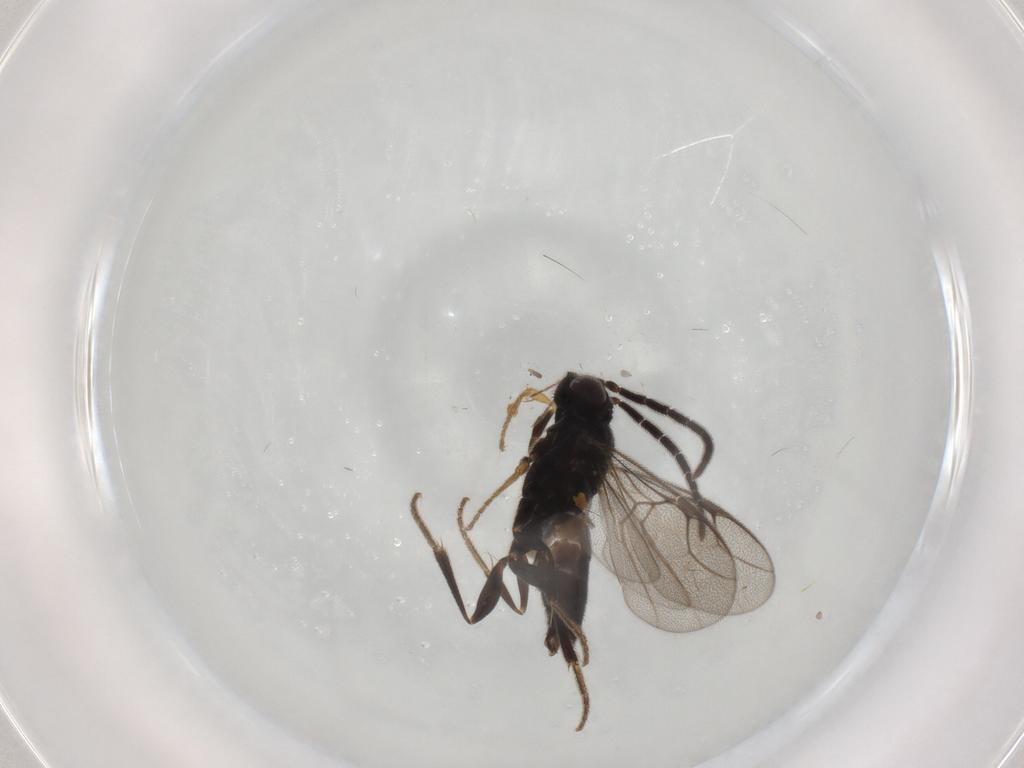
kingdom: Animalia
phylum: Arthropoda
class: Insecta
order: Hymenoptera
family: Dryinidae
